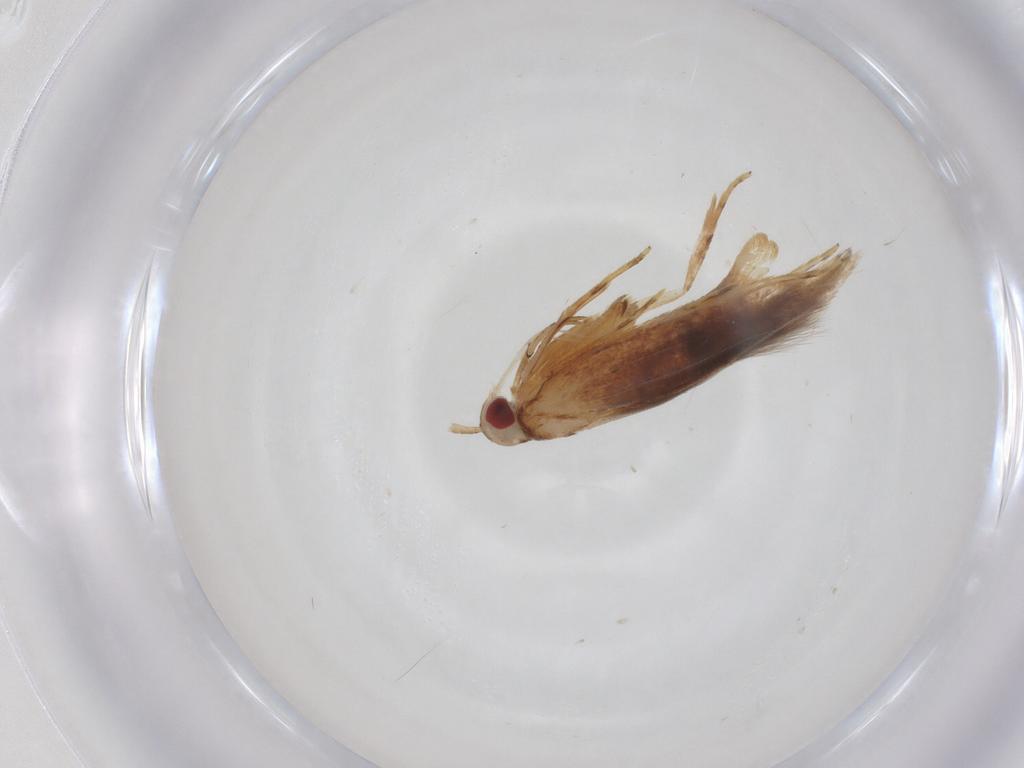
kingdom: Animalia
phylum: Arthropoda
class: Insecta
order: Lepidoptera
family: Cosmopterigidae
